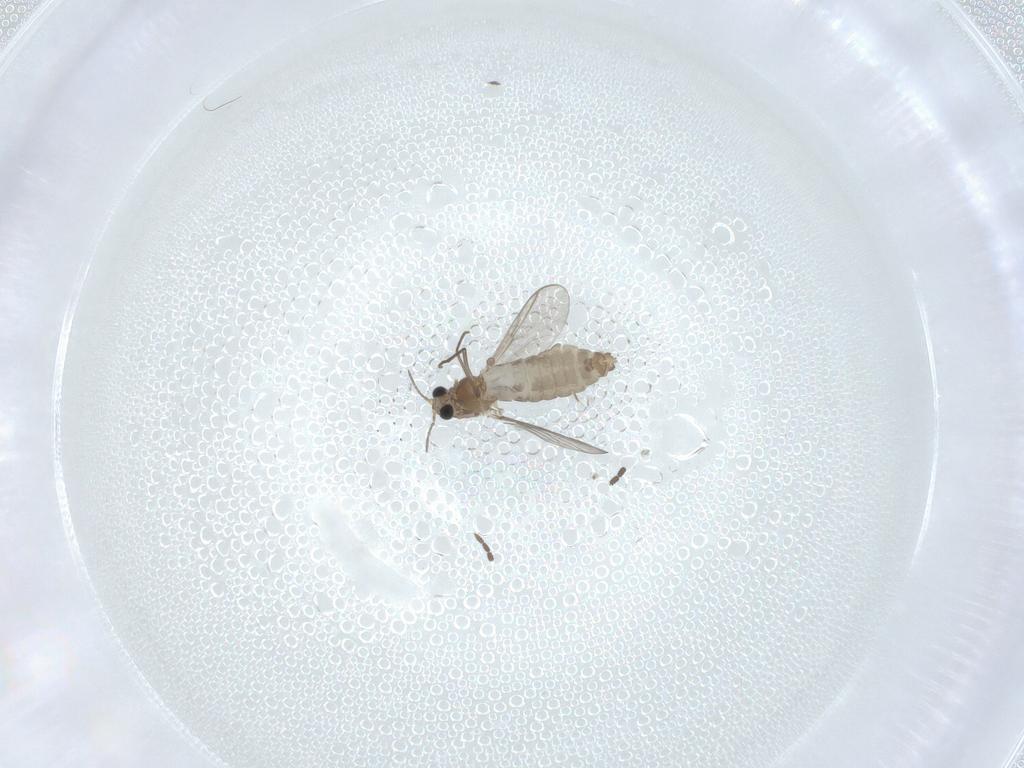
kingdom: Animalia
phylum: Arthropoda
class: Insecta
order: Diptera
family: Chironomidae
